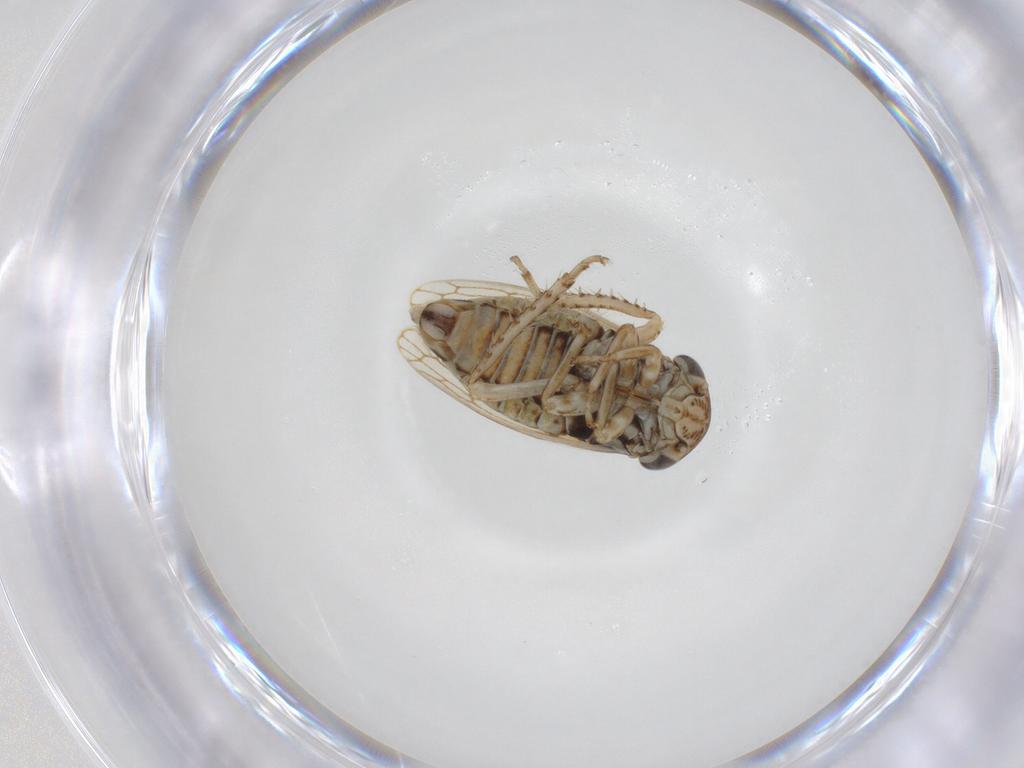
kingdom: Animalia
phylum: Arthropoda
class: Insecta
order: Hemiptera
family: Cicadellidae
